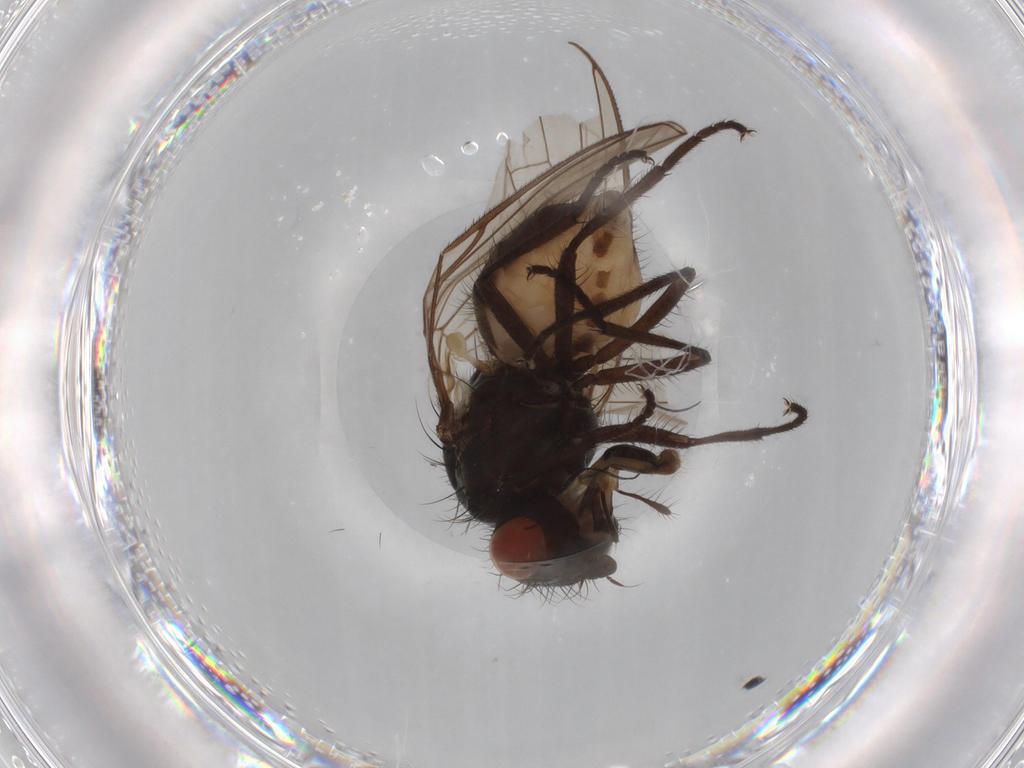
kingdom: Animalia
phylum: Arthropoda
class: Insecta
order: Diptera
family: Anthomyiidae
